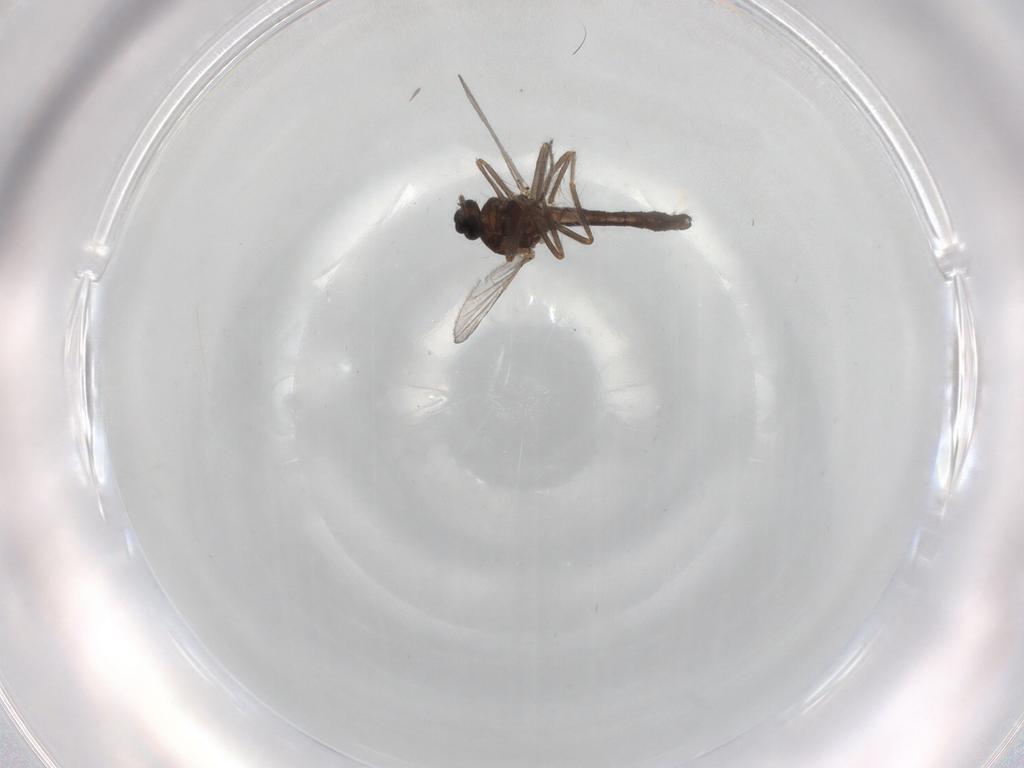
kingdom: Animalia
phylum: Arthropoda
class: Insecta
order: Diptera
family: Ceratopogonidae
